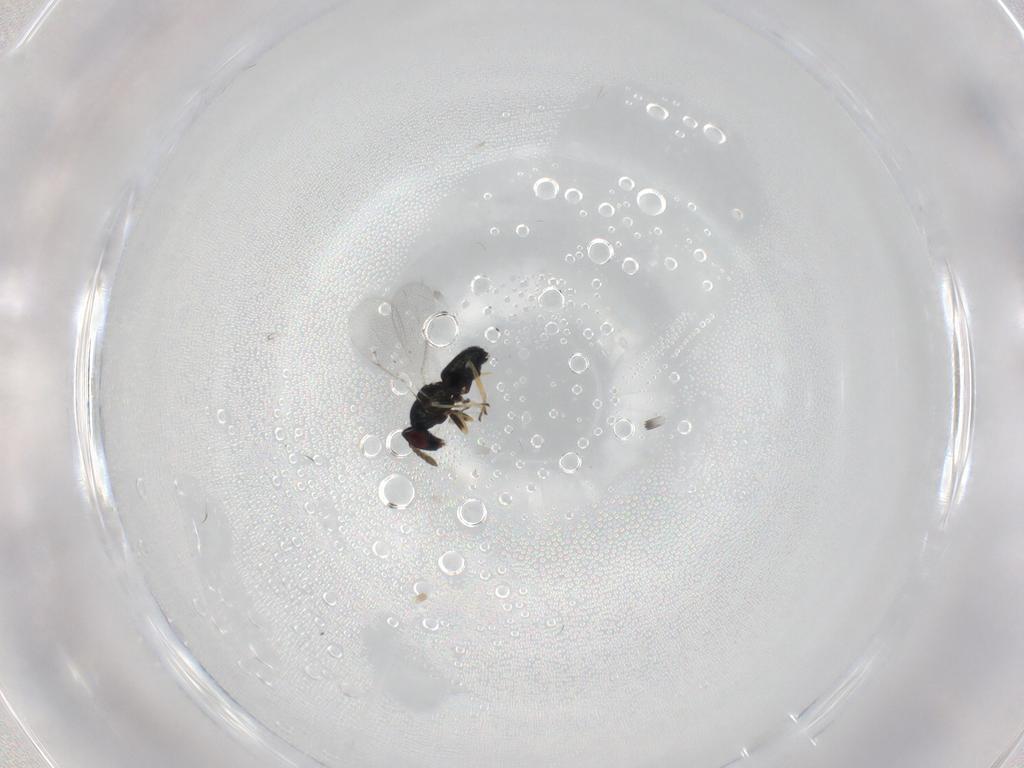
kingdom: Animalia
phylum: Arthropoda
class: Insecta
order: Hymenoptera
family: Eulophidae
